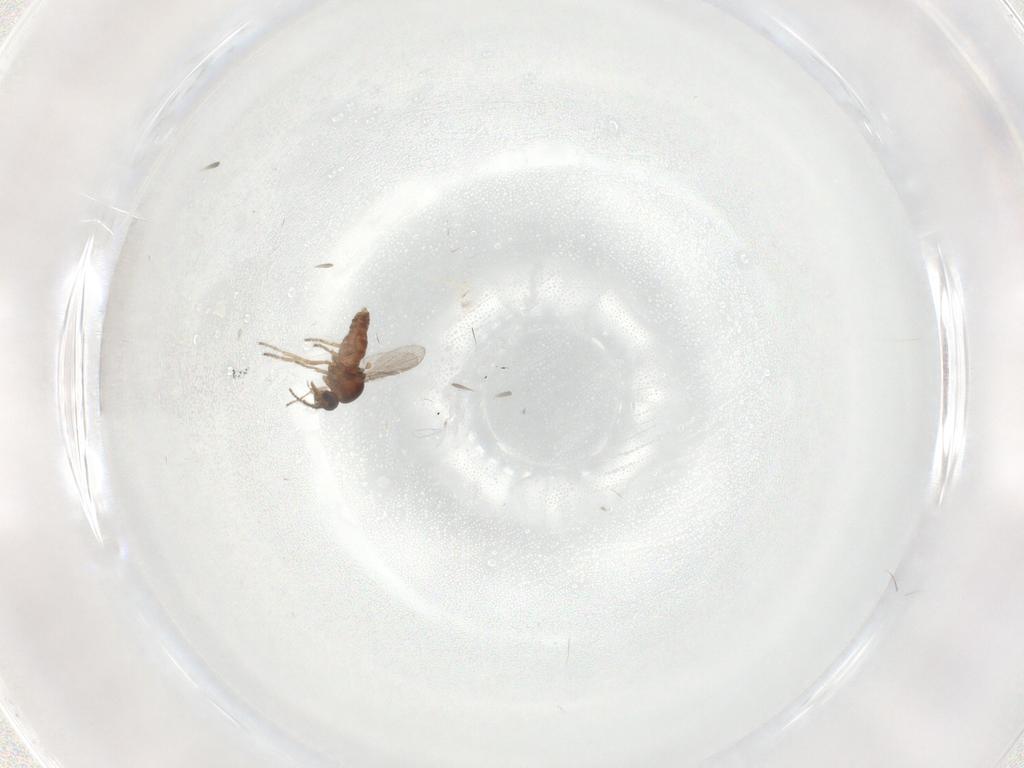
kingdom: Animalia
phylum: Arthropoda
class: Insecta
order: Diptera
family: Ceratopogonidae
